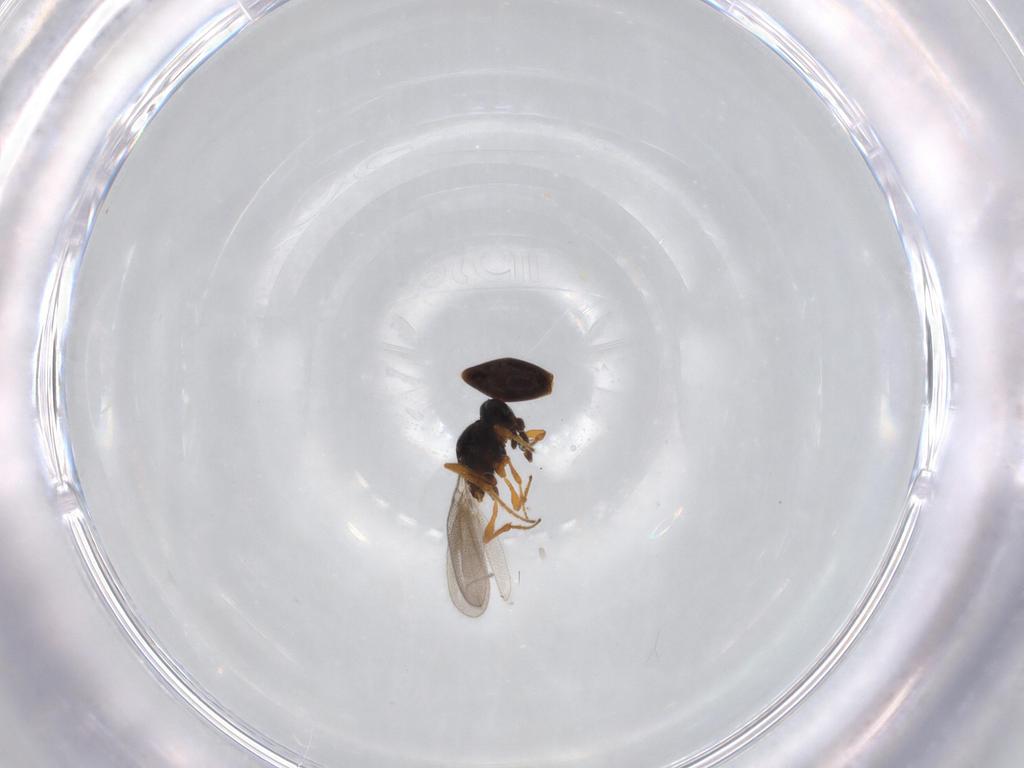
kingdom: Animalia
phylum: Arthropoda
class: Insecta
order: Hymenoptera
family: Platygastridae
